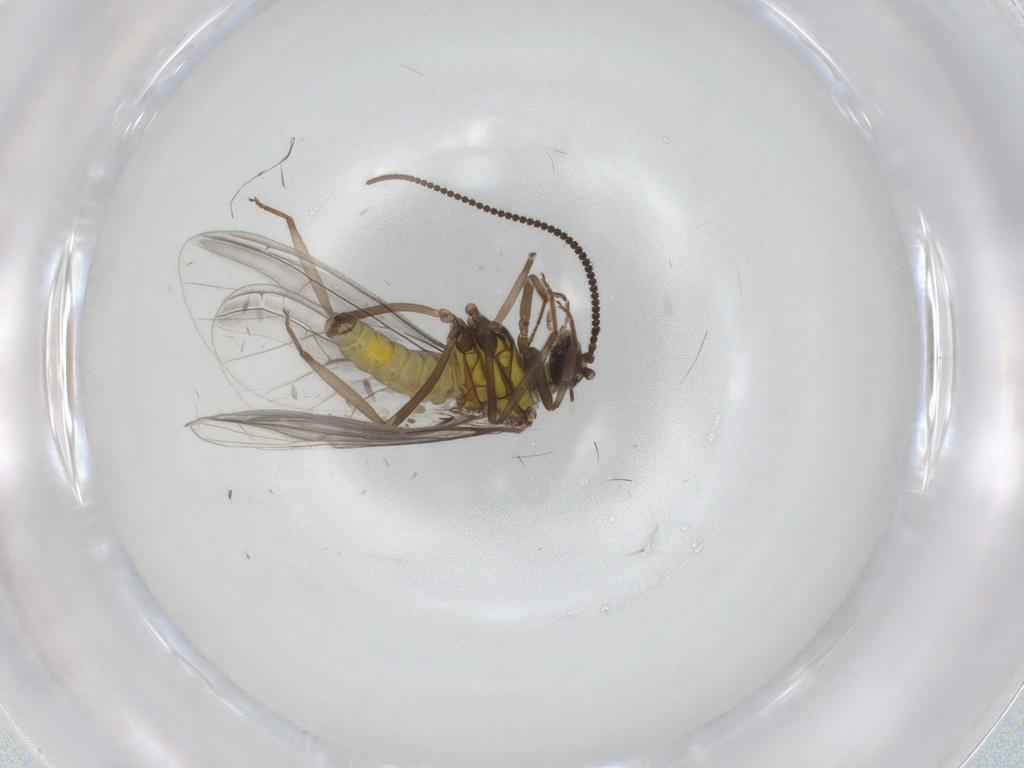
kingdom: Animalia
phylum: Arthropoda
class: Insecta
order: Neuroptera
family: Coniopterygidae
